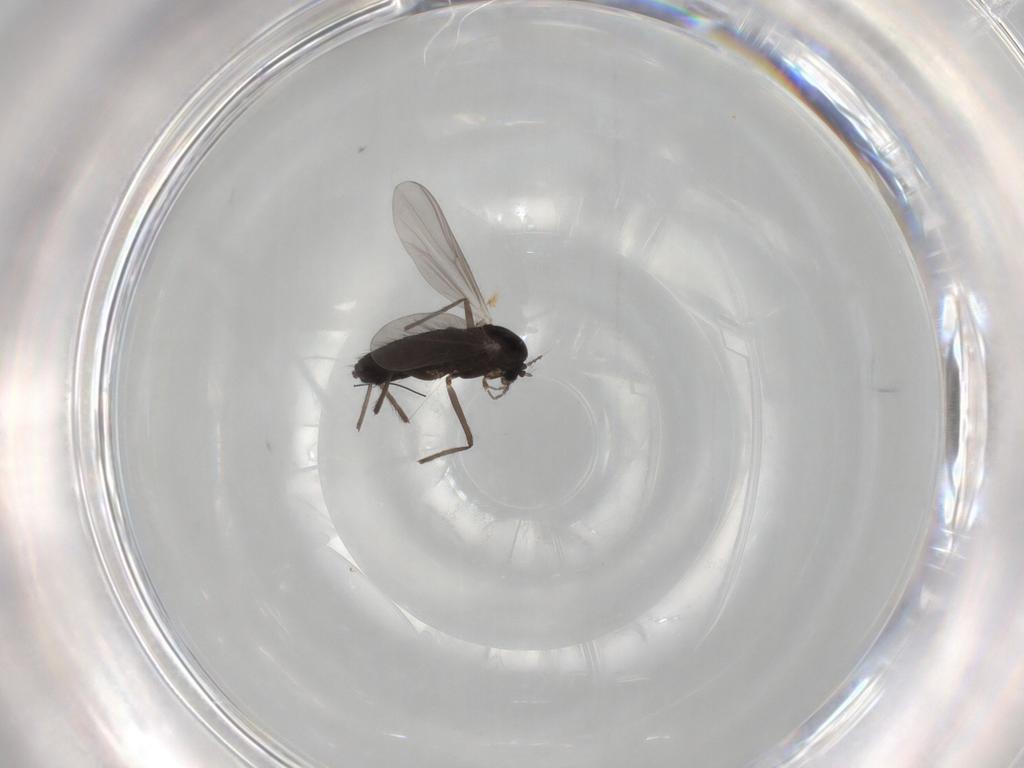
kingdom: Animalia
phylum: Arthropoda
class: Insecta
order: Diptera
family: Chironomidae
